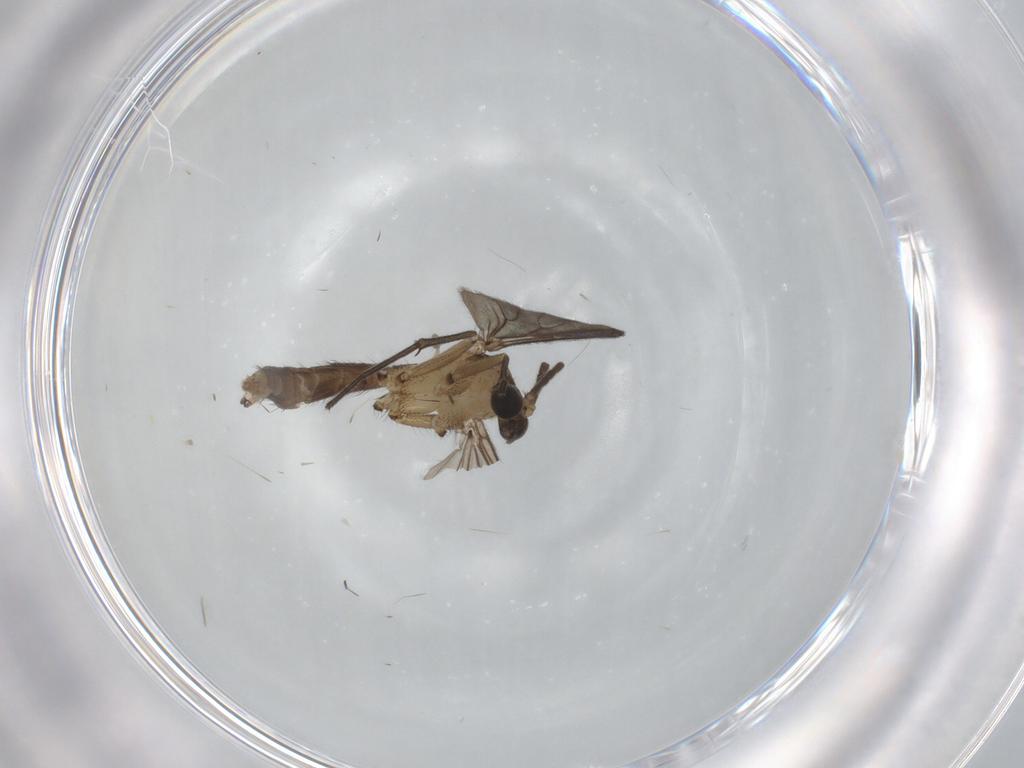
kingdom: Animalia
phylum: Arthropoda
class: Insecta
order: Diptera
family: Mycetophilidae
